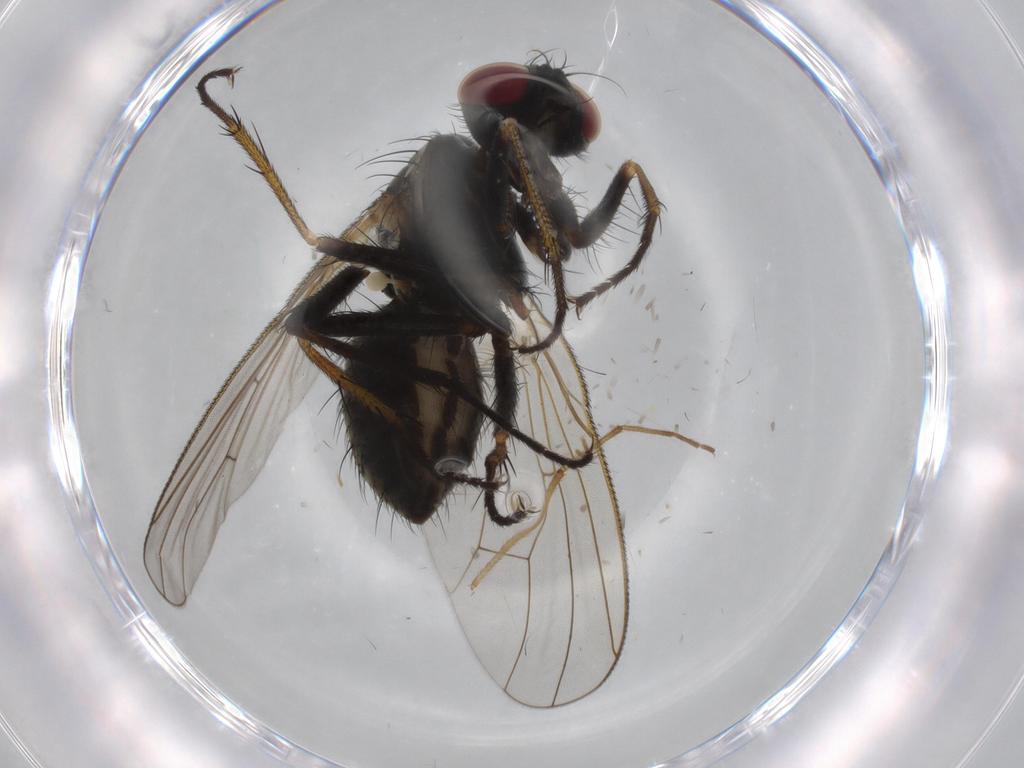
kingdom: Animalia
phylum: Arthropoda
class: Insecta
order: Diptera
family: Anthomyiidae
